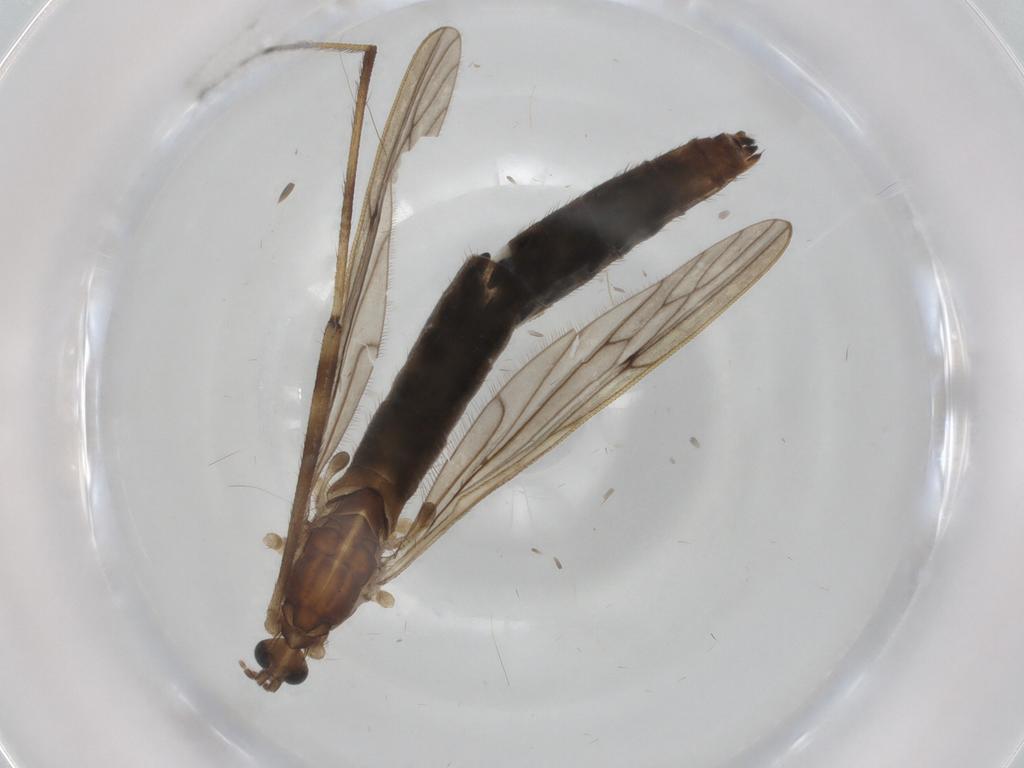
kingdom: Animalia
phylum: Arthropoda
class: Insecta
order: Diptera
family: Limoniidae
